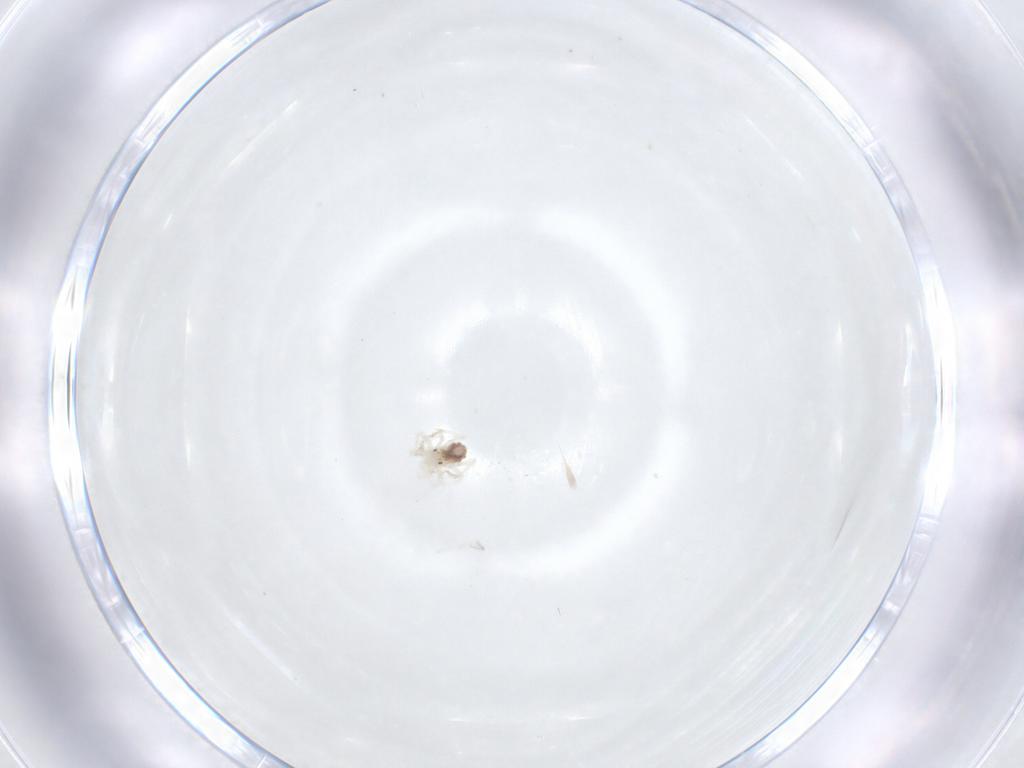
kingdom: Animalia
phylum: Arthropoda
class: Arachnida
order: Trombidiformes
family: Anystidae
